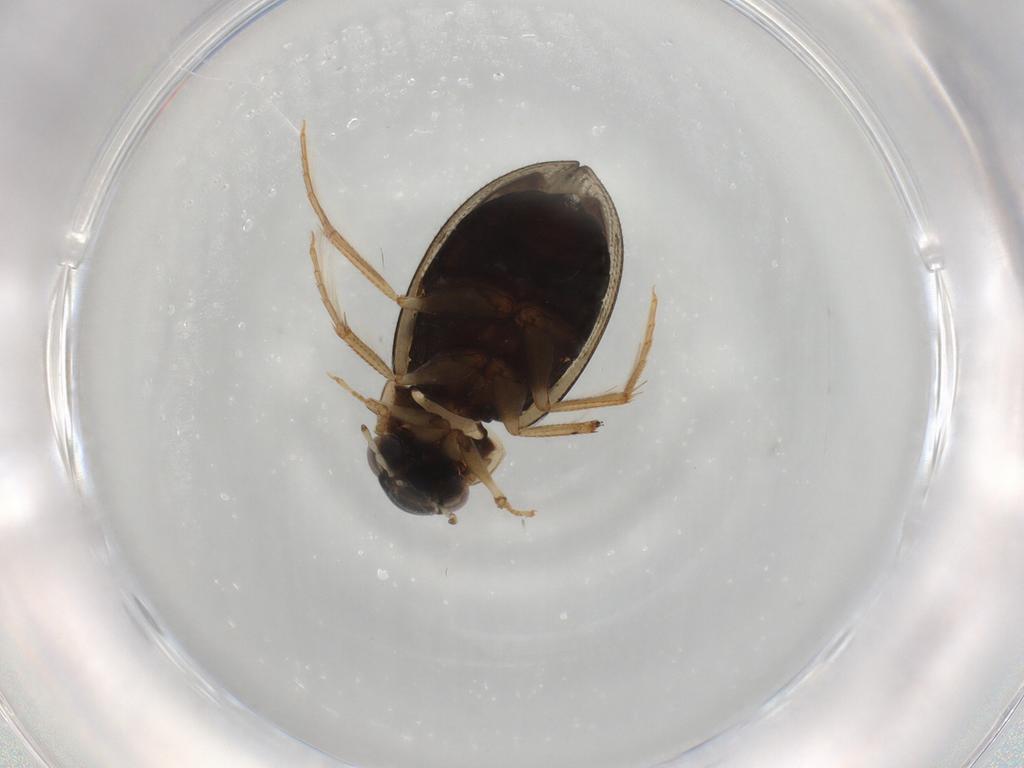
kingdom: Animalia
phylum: Arthropoda
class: Insecta
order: Coleoptera
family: Hydrophilidae
